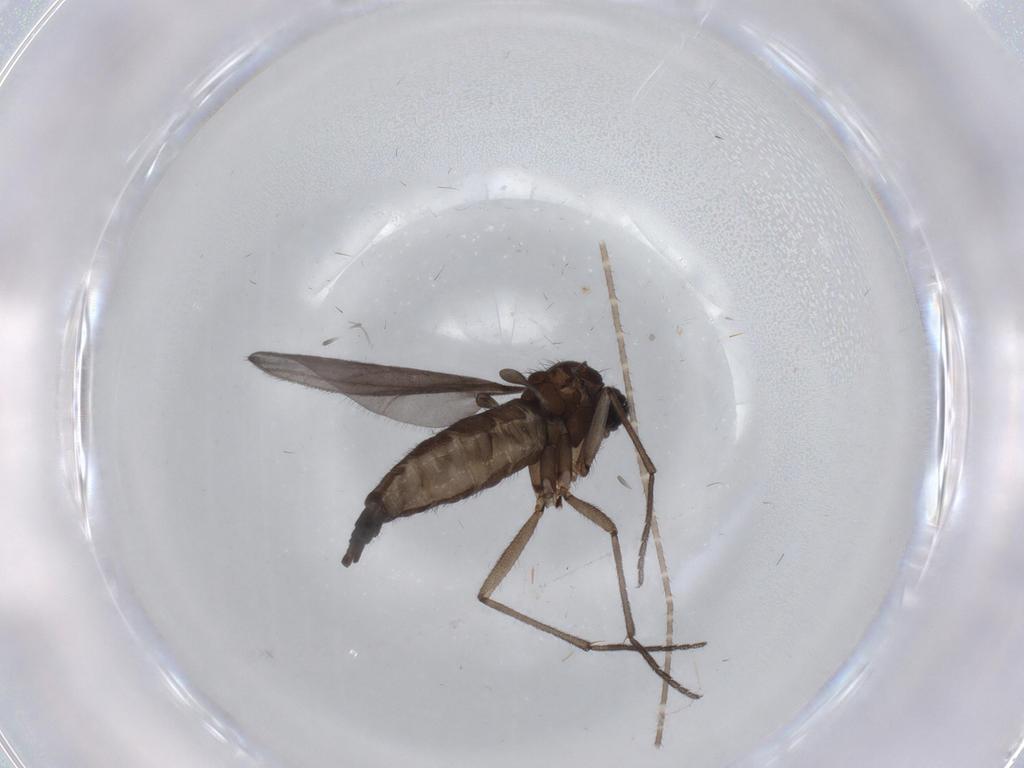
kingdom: Animalia
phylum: Arthropoda
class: Insecta
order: Diptera
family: Sciaridae
